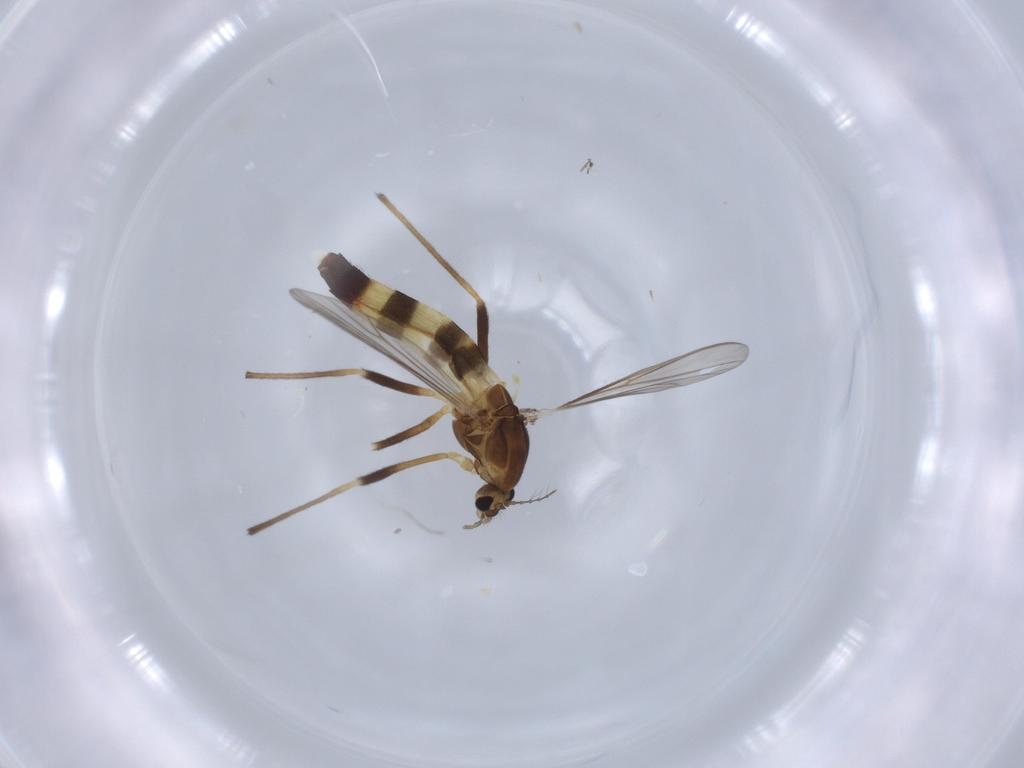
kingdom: Animalia
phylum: Arthropoda
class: Insecta
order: Diptera
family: Chironomidae
